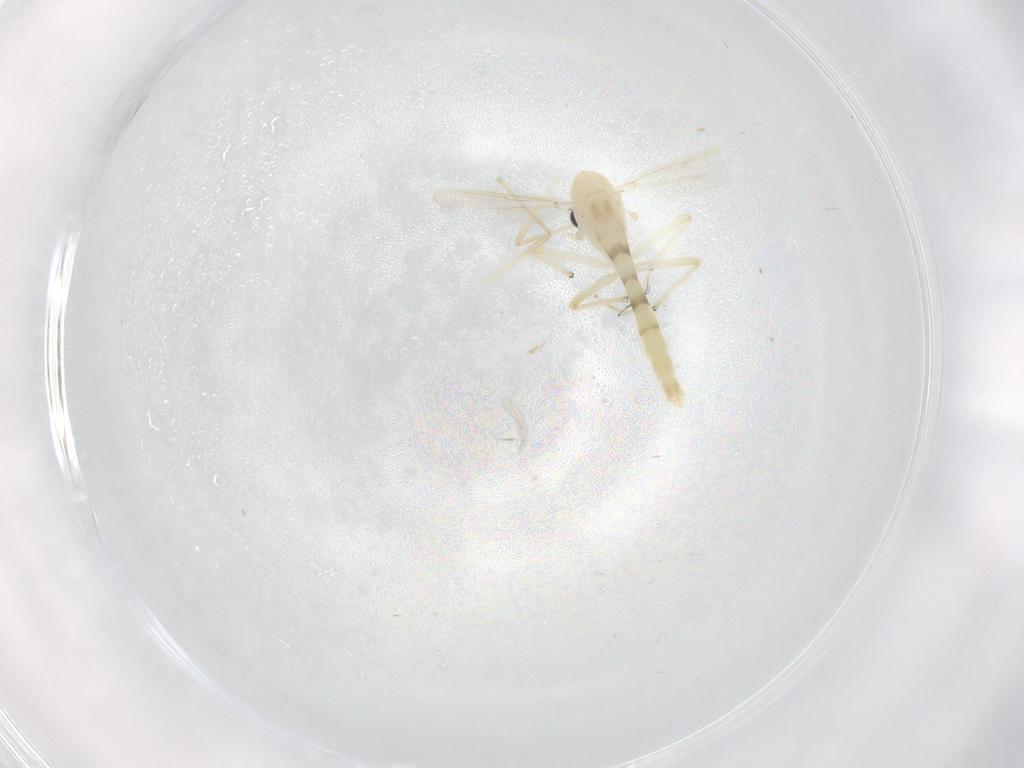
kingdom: Animalia
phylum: Arthropoda
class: Insecta
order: Diptera
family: Chironomidae
